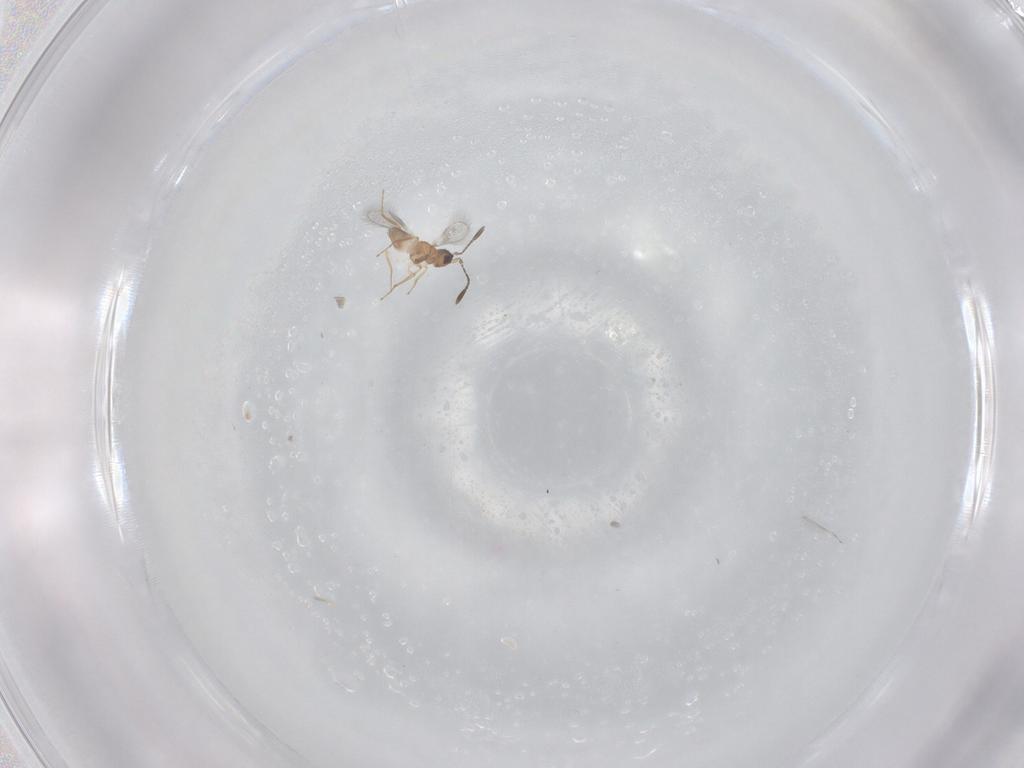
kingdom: Animalia
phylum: Arthropoda
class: Insecta
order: Hymenoptera
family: Mymaridae
